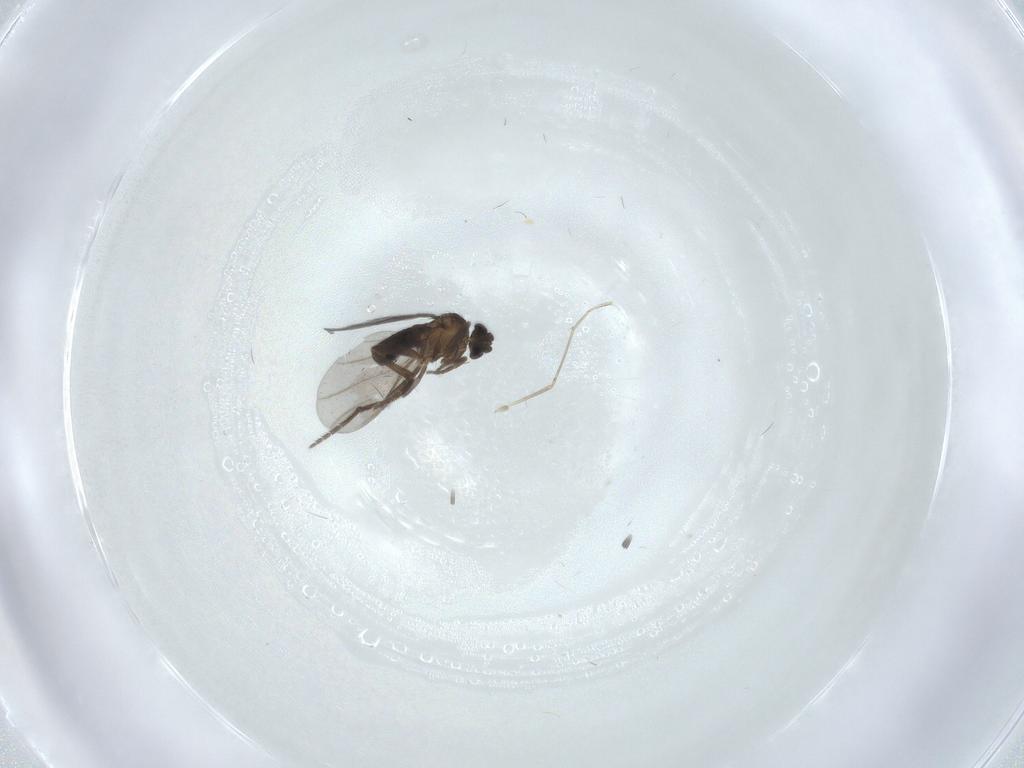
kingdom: Animalia
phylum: Arthropoda
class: Insecta
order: Diptera
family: Phoridae
